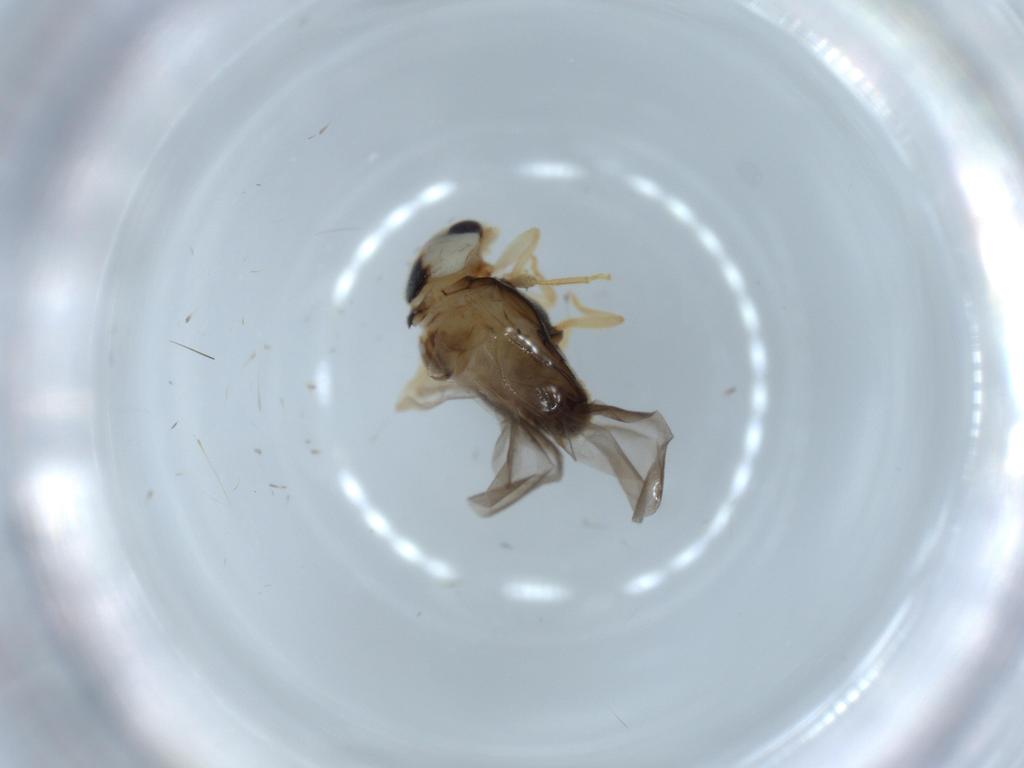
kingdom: Animalia
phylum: Arthropoda
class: Insecta
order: Coleoptera
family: Coccinellidae
